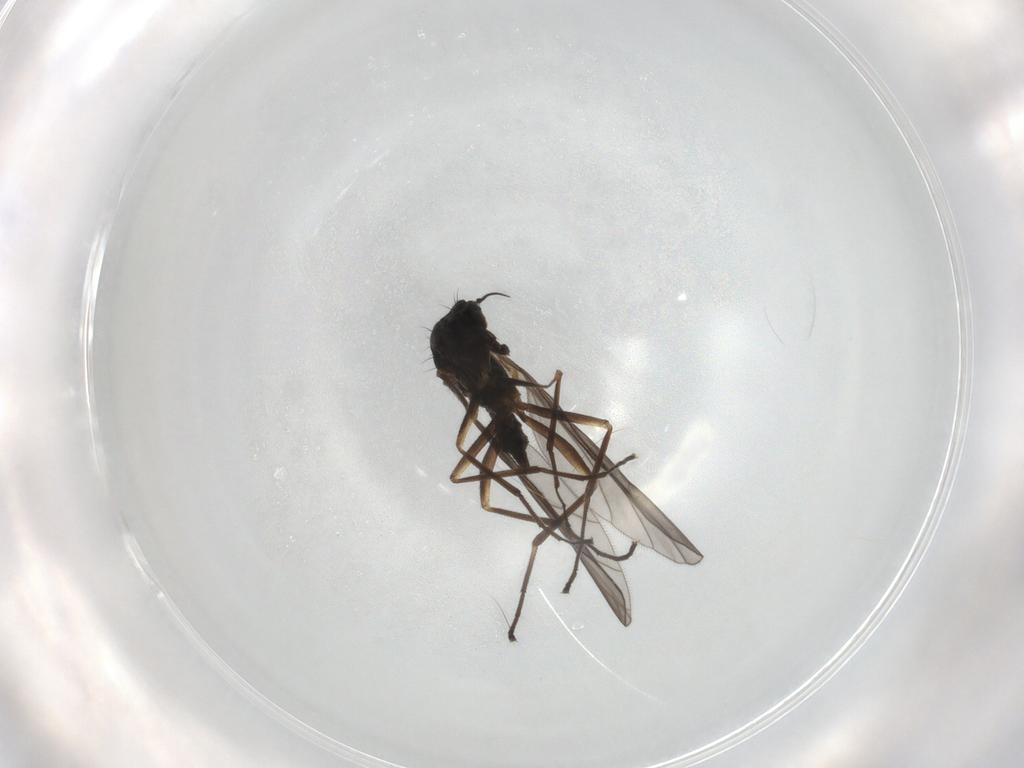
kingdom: Animalia
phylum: Arthropoda
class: Insecta
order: Diptera
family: Empididae
